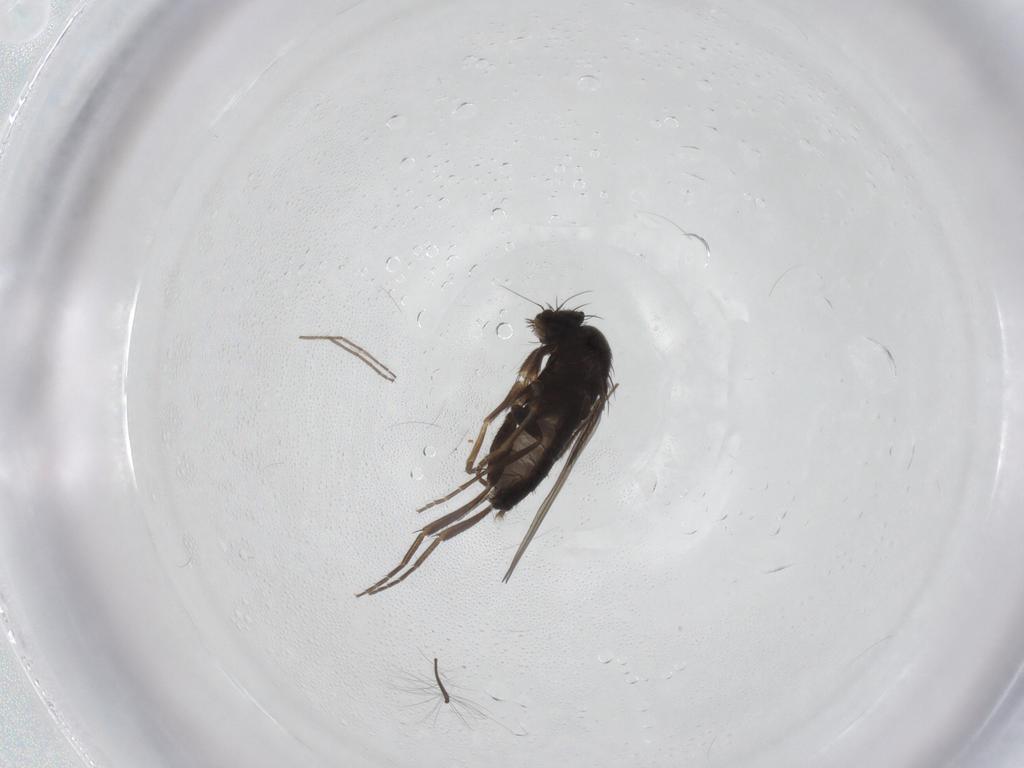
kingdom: Animalia
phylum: Arthropoda
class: Insecta
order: Diptera
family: Phoridae
